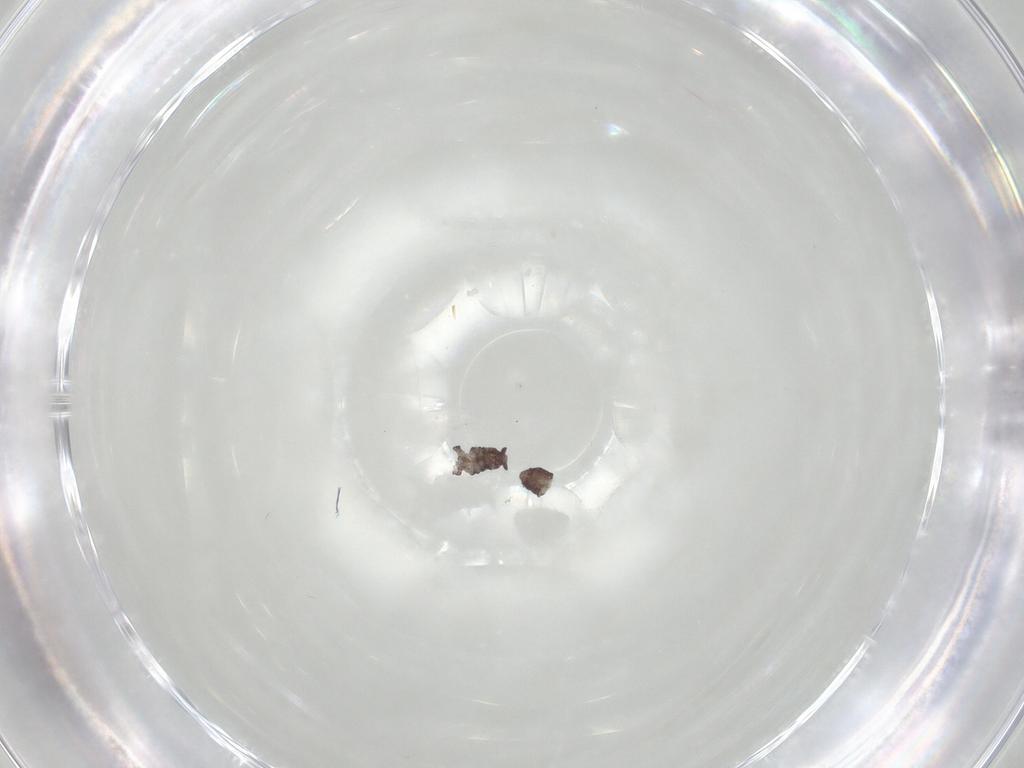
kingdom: Animalia
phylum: Arthropoda
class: Collembola
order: Poduromorpha
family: Hypogastruridae
